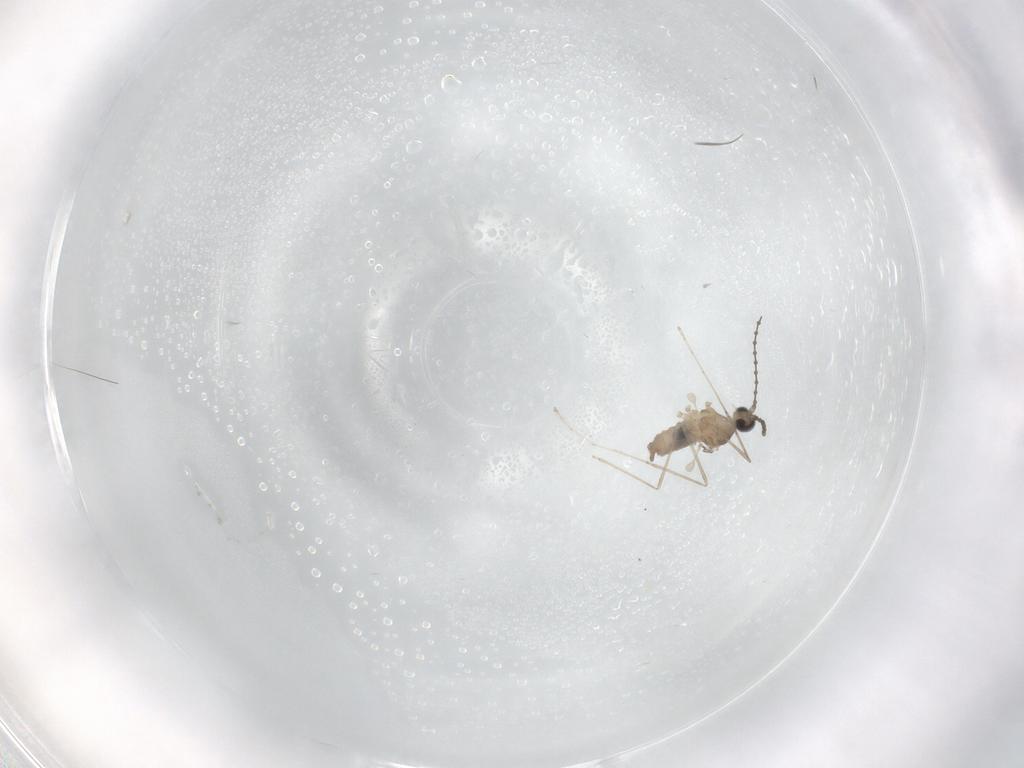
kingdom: Animalia
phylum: Arthropoda
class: Insecta
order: Diptera
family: Cecidomyiidae
